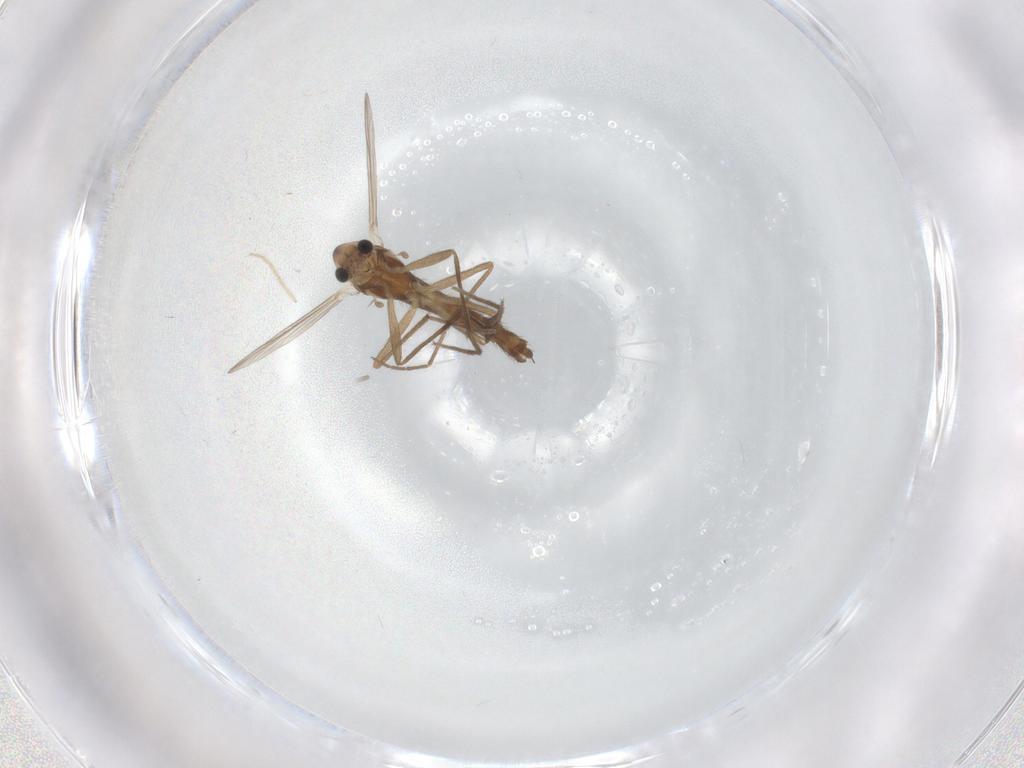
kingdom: Animalia
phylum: Arthropoda
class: Insecta
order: Diptera
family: Chironomidae
